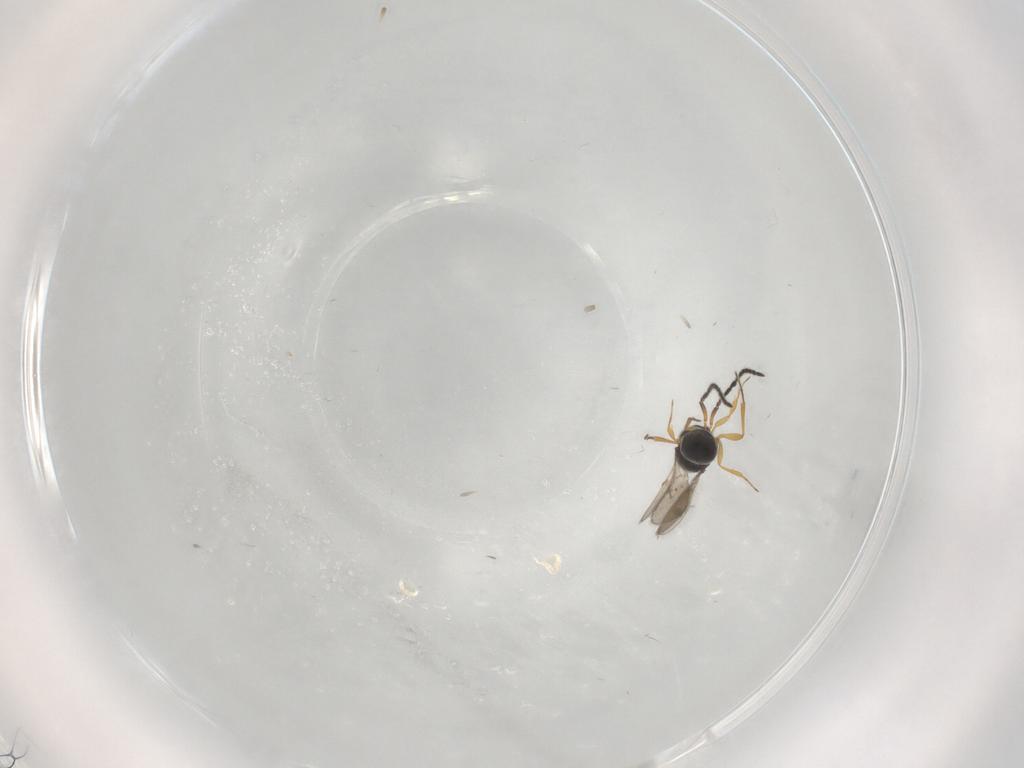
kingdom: Animalia
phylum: Arthropoda
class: Insecta
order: Hymenoptera
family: Scelionidae
